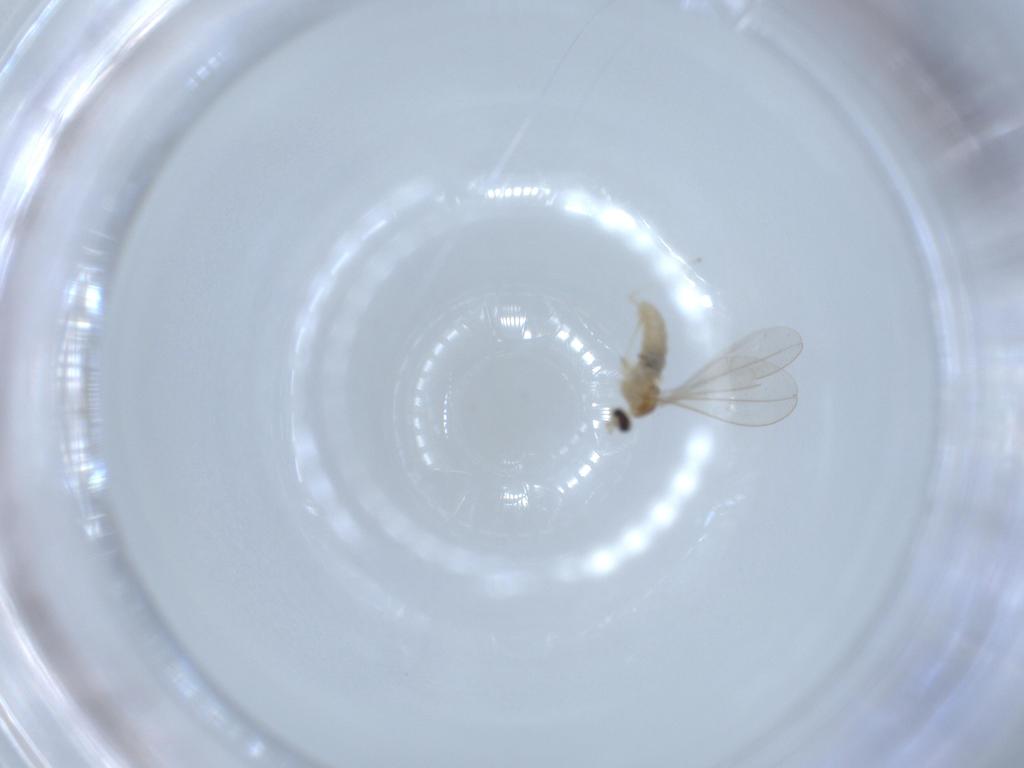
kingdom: Animalia
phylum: Arthropoda
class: Insecta
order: Diptera
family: Cecidomyiidae
